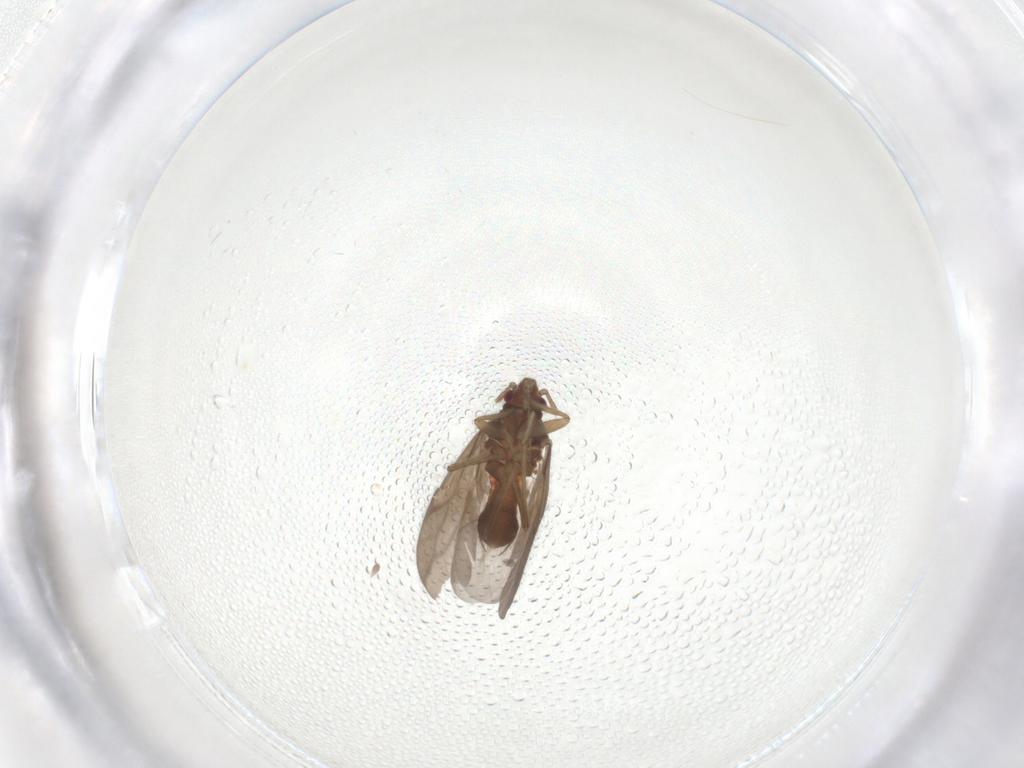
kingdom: Animalia
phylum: Arthropoda
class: Insecta
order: Hemiptera
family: Ceratocombidae
